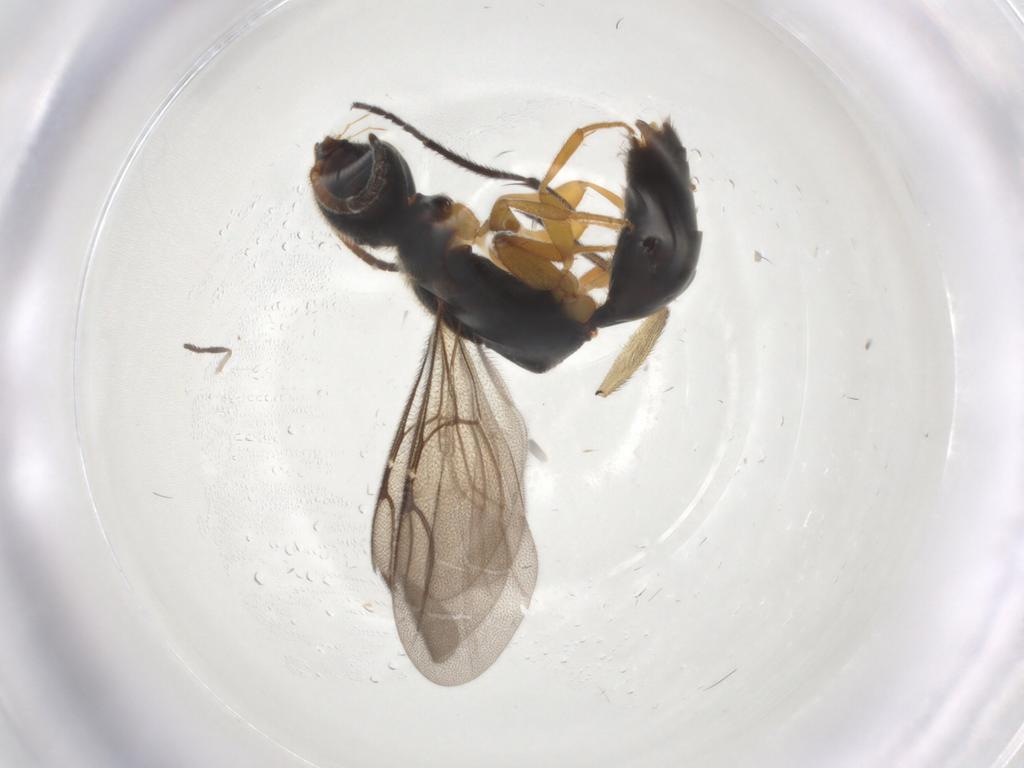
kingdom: Animalia
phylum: Arthropoda
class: Insecta
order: Hymenoptera
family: Bethylidae
